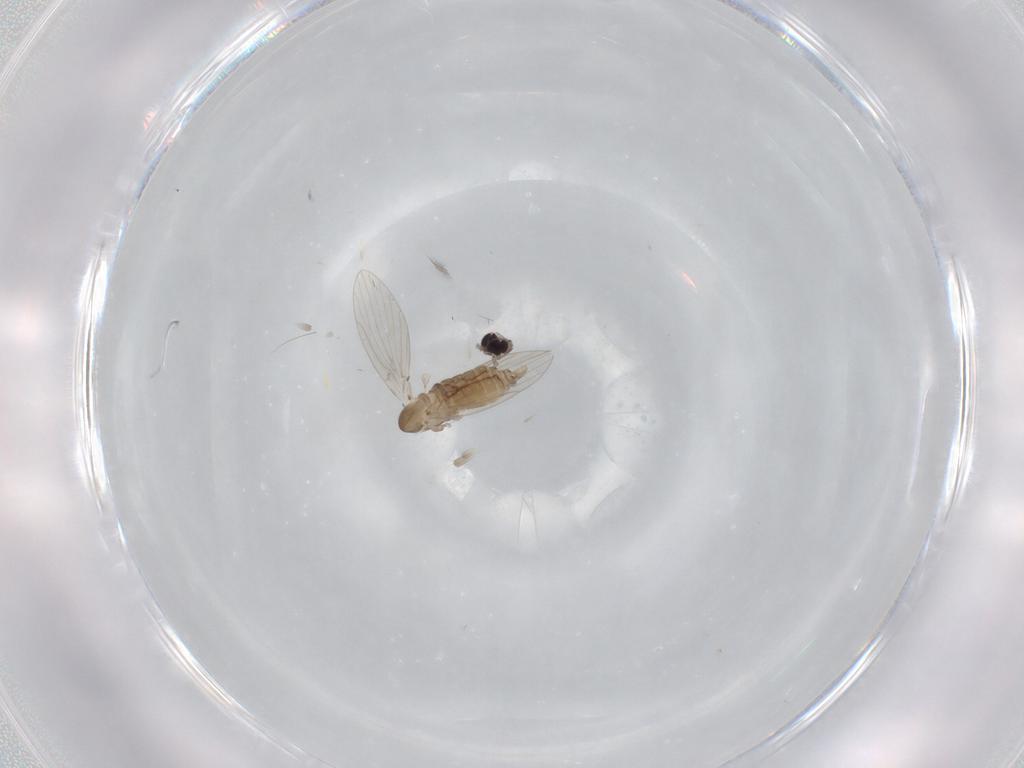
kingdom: Animalia
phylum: Arthropoda
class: Insecta
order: Diptera
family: Psychodidae
